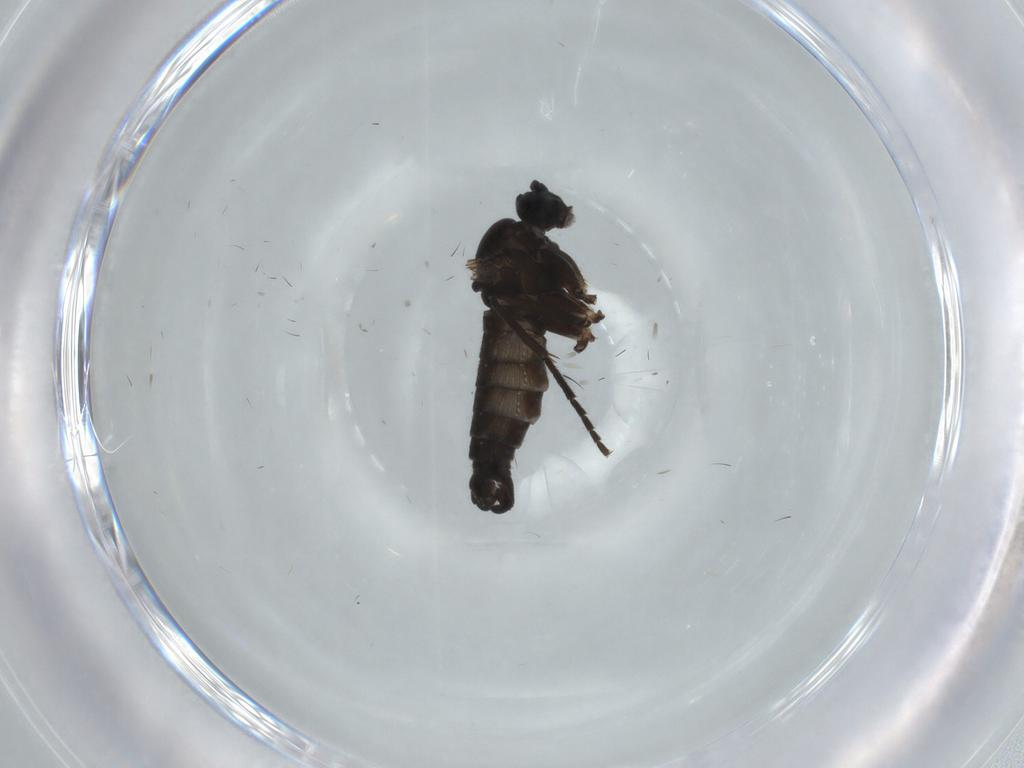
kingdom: Animalia
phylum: Arthropoda
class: Insecta
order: Diptera
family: Sciaridae
